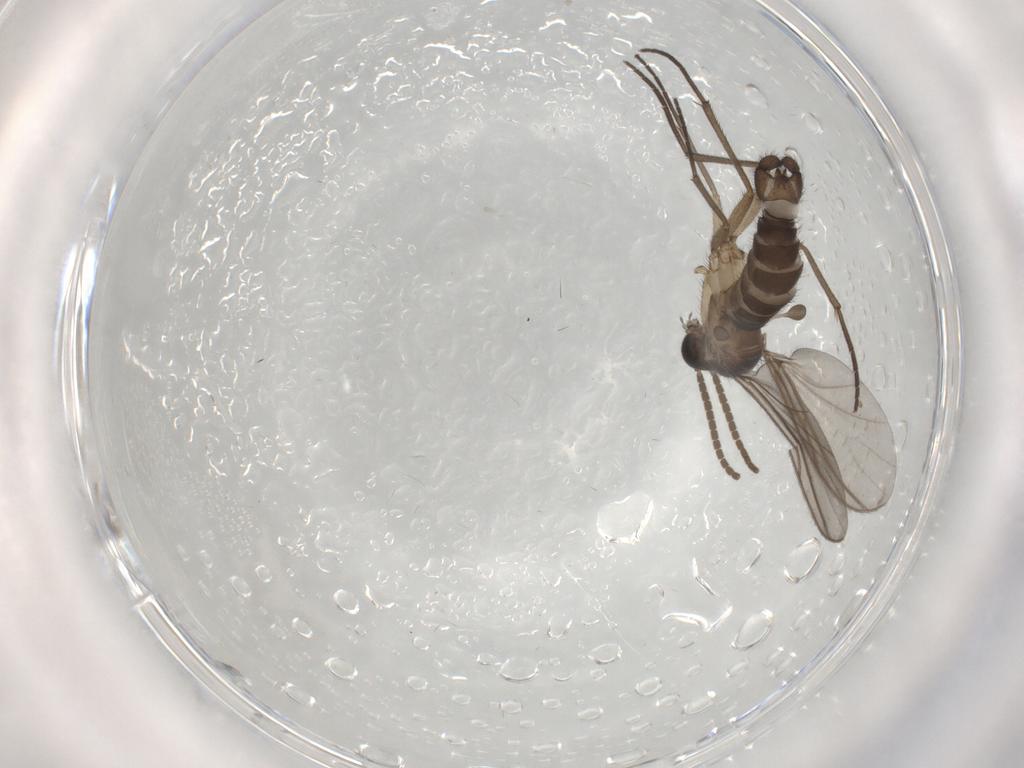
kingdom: Animalia
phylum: Arthropoda
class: Insecta
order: Diptera
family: Sciaridae
